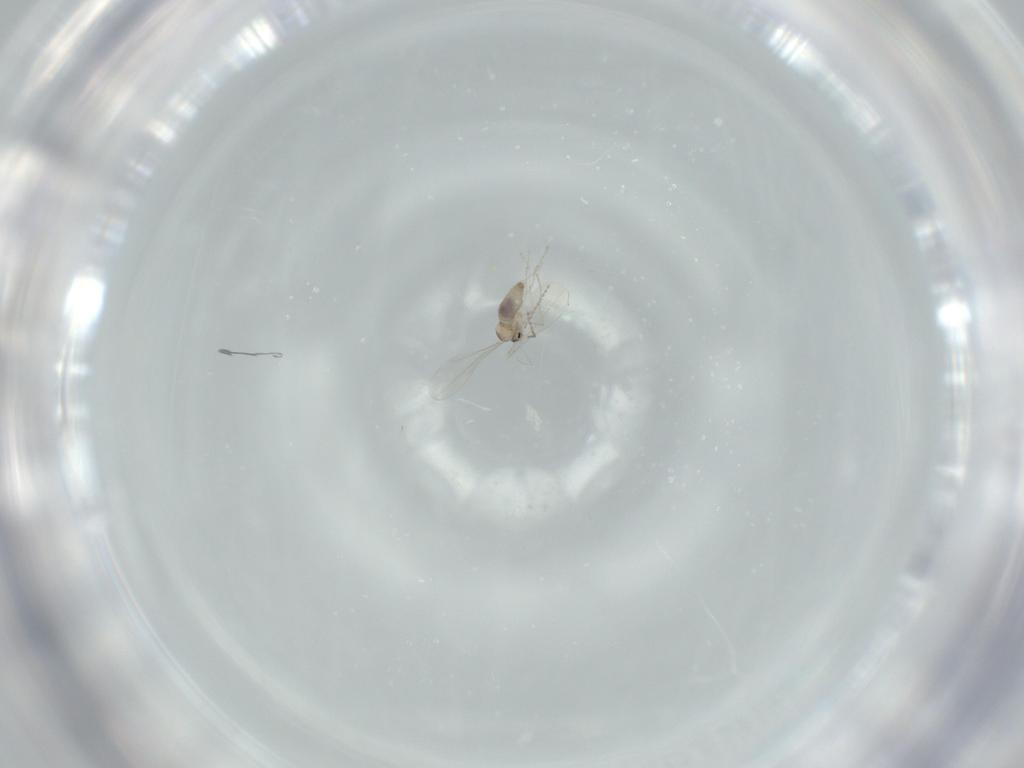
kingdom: Animalia
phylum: Arthropoda
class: Insecta
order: Diptera
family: Cecidomyiidae
